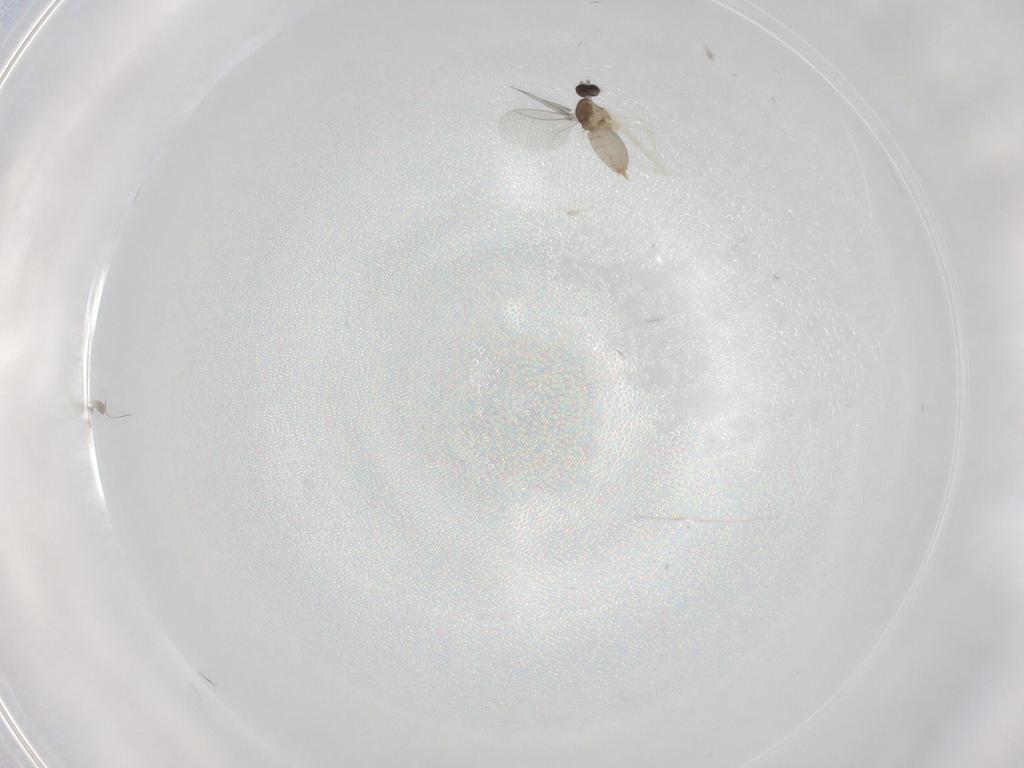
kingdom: Animalia
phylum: Arthropoda
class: Insecta
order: Diptera
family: Cecidomyiidae
